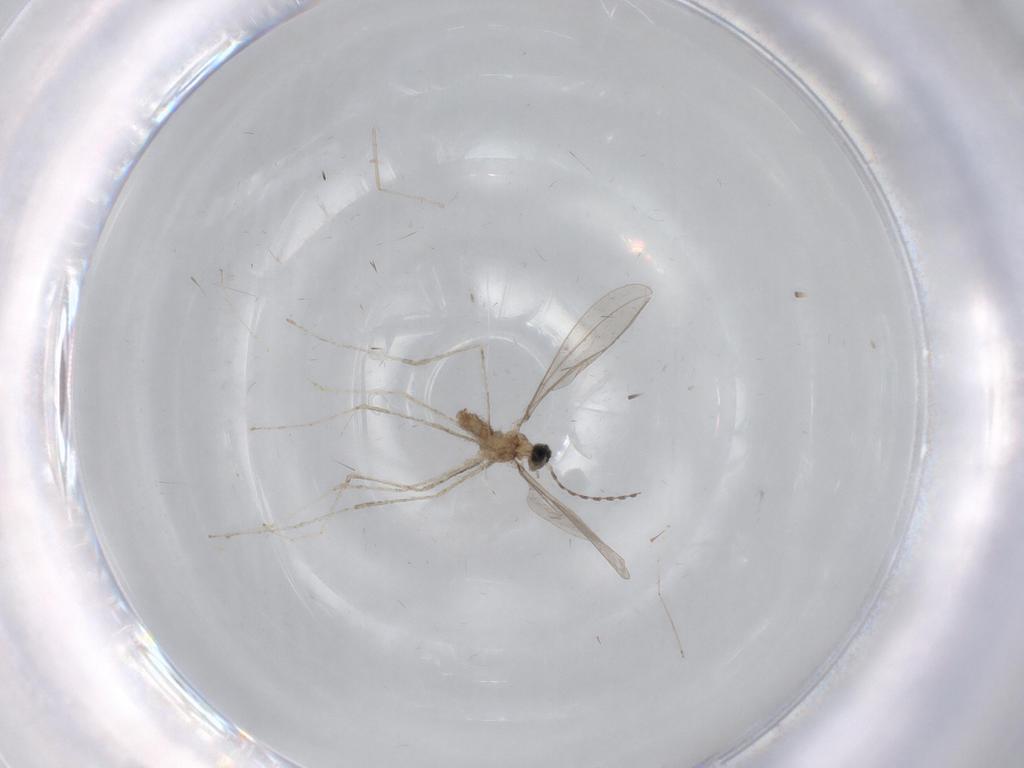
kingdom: Animalia
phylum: Arthropoda
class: Insecta
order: Diptera
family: Cecidomyiidae
